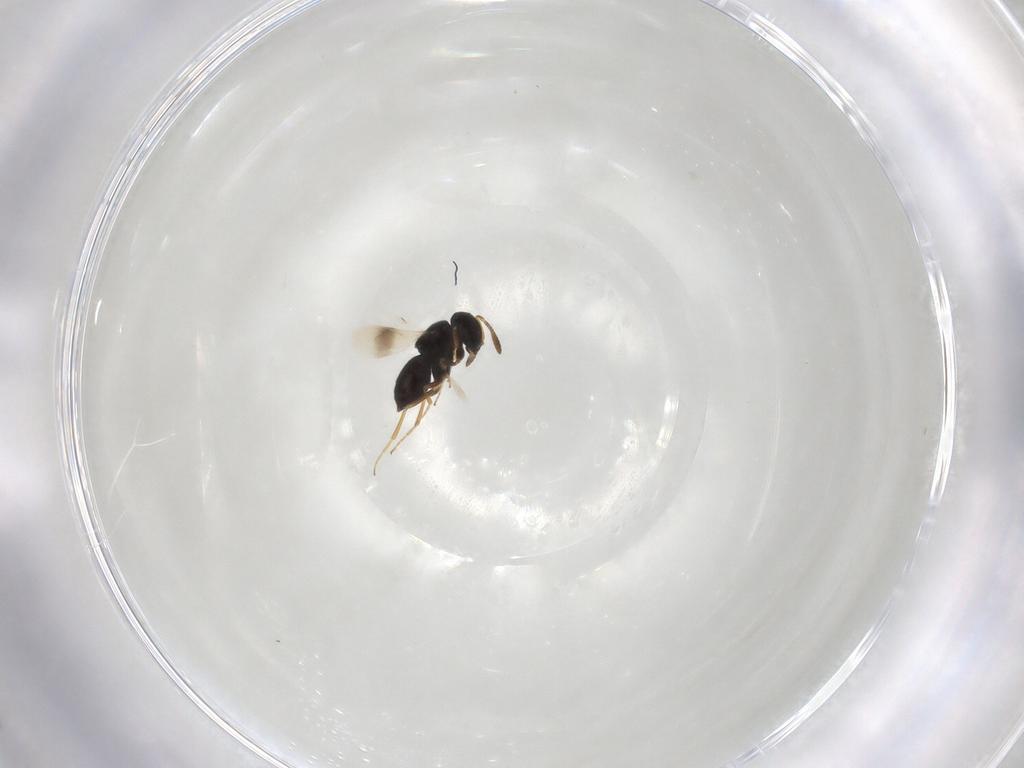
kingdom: Animalia
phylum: Arthropoda
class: Insecta
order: Hymenoptera
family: Scelionidae
